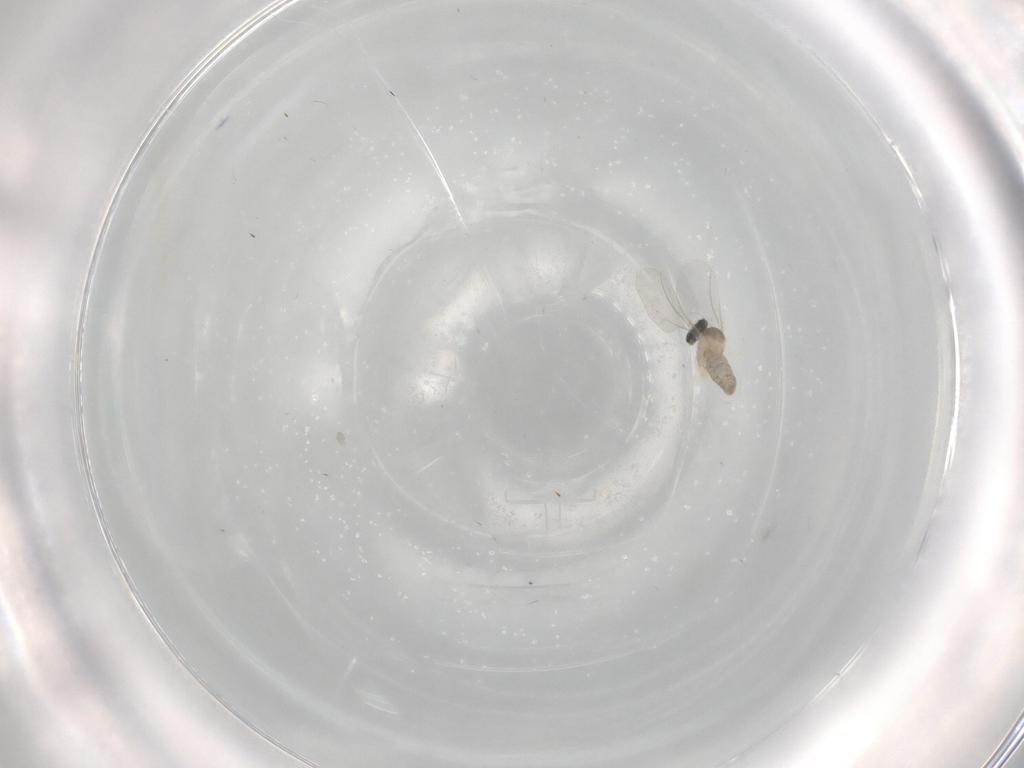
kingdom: Animalia
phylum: Arthropoda
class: Insecta
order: Diptera
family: Cecidomyiidae
